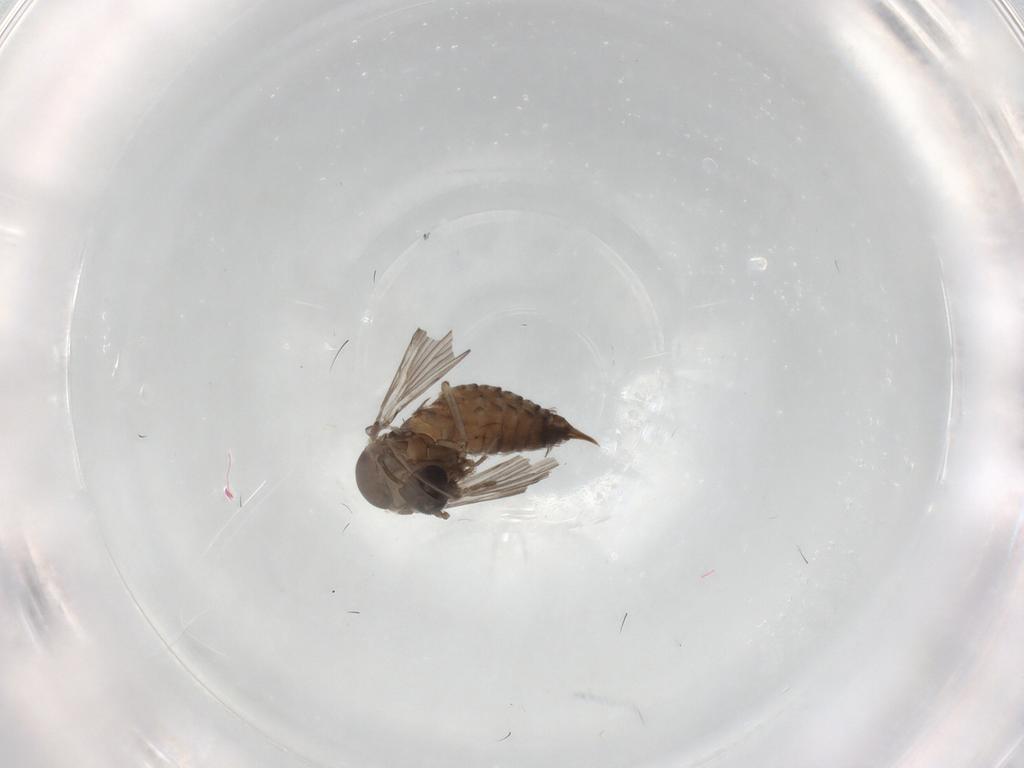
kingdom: Animalia
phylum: Arthropoda
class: Insecta
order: Diptera
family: Psychodidae
